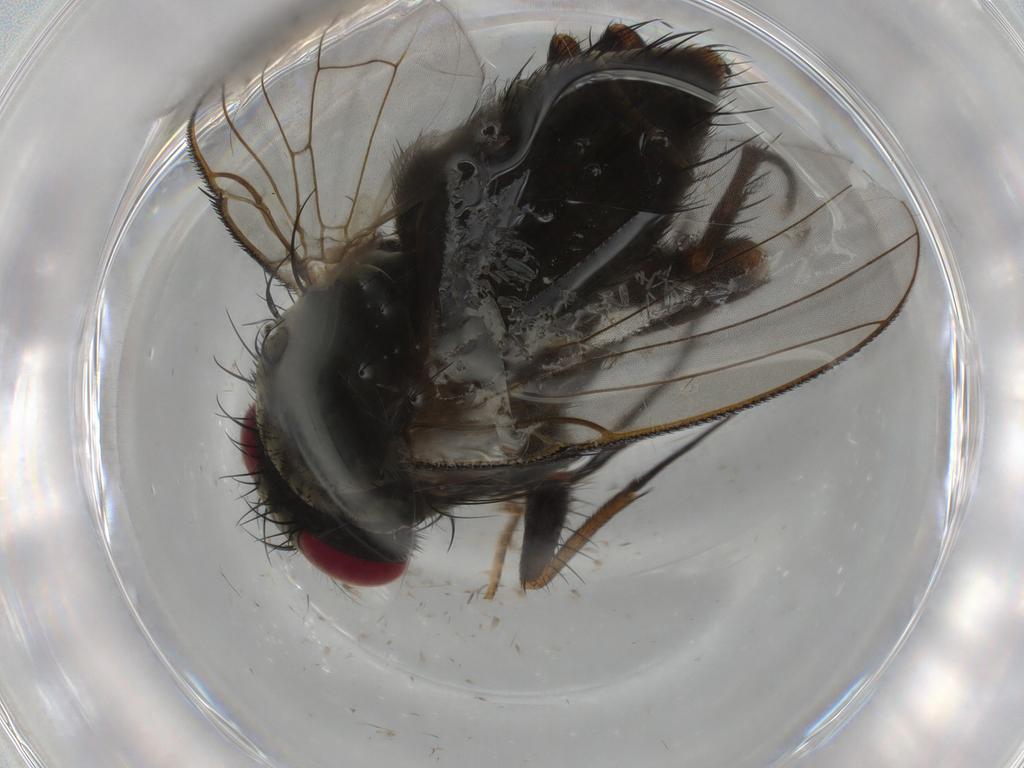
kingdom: Animalia
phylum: Arthropoda
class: Insecta
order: Diptera
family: Muscidae
